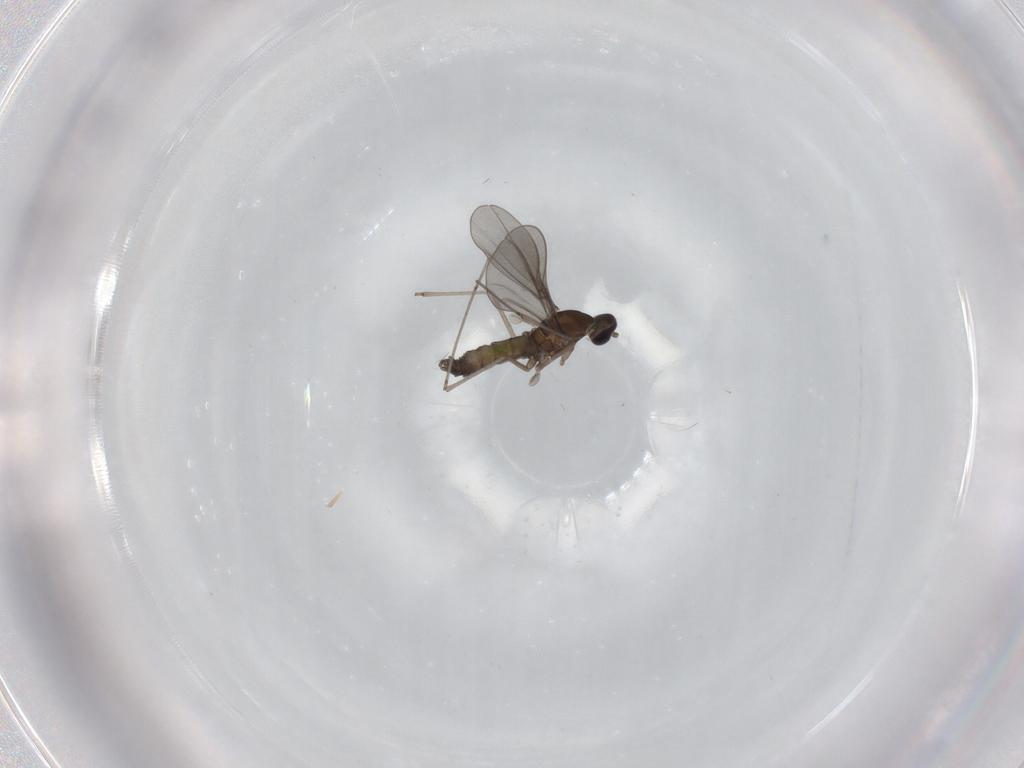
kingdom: Animalia
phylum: Arthropoda
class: Insecta
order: Diptera
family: Cecidomyiidae
